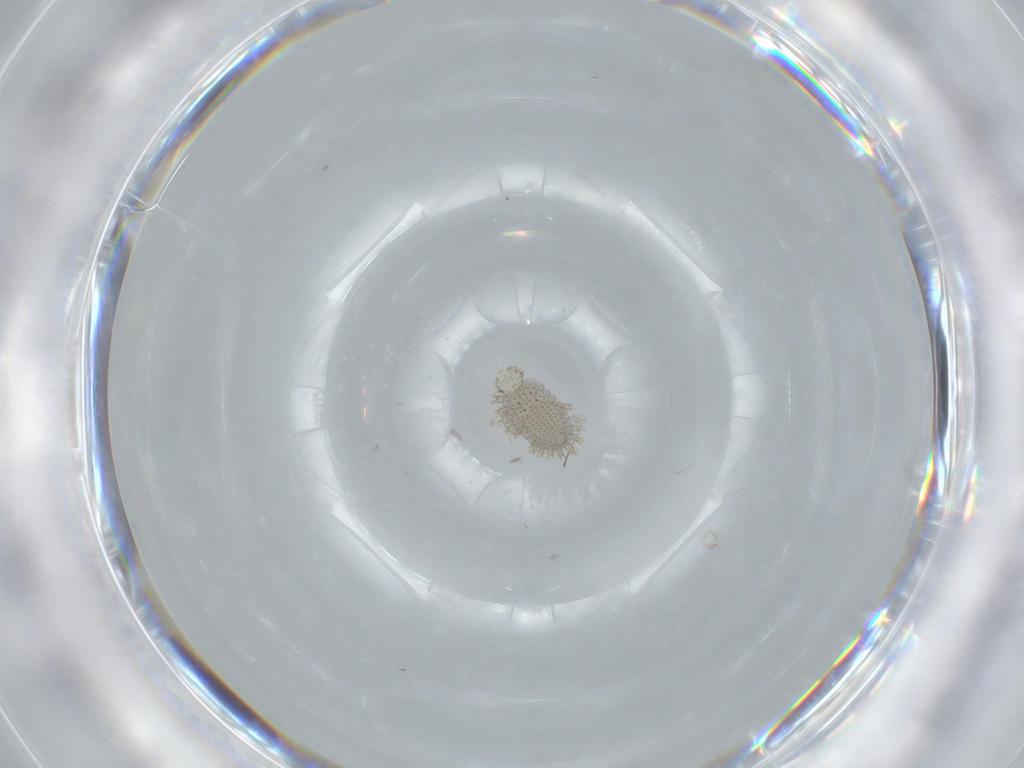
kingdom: Animalia
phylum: Arthropoda
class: Insecta
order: Coleoptera
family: Coccinellidae
